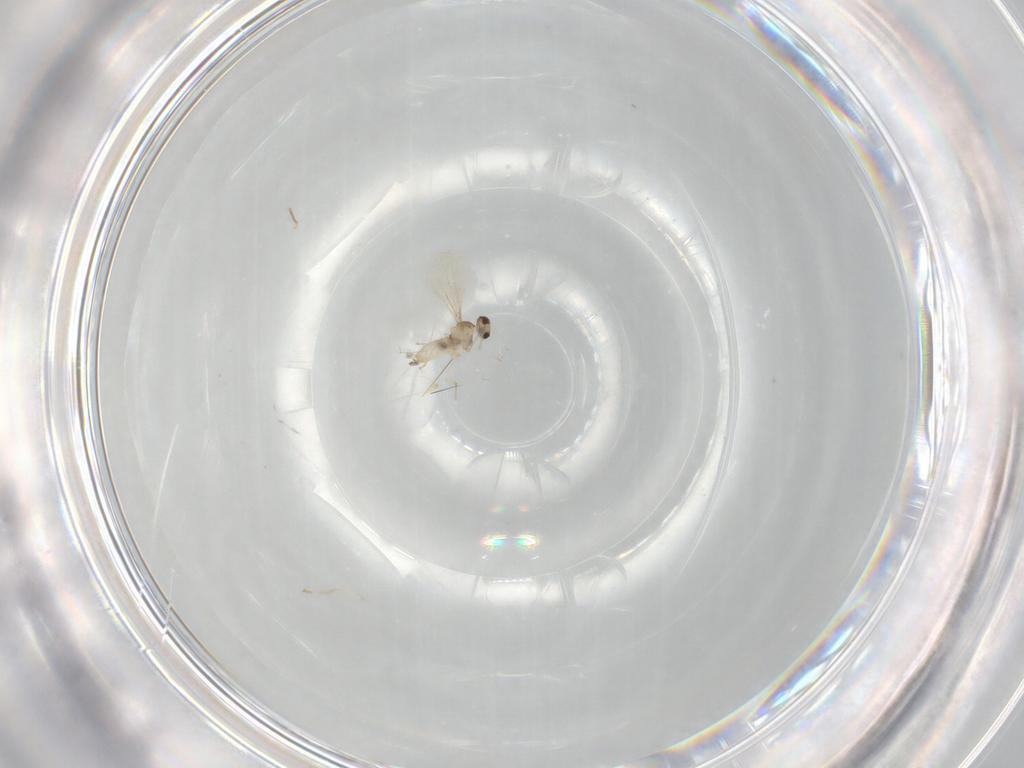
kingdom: Animalia
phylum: Arthropoda
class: Insecta
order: Diptera
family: Cecidomyiidae
